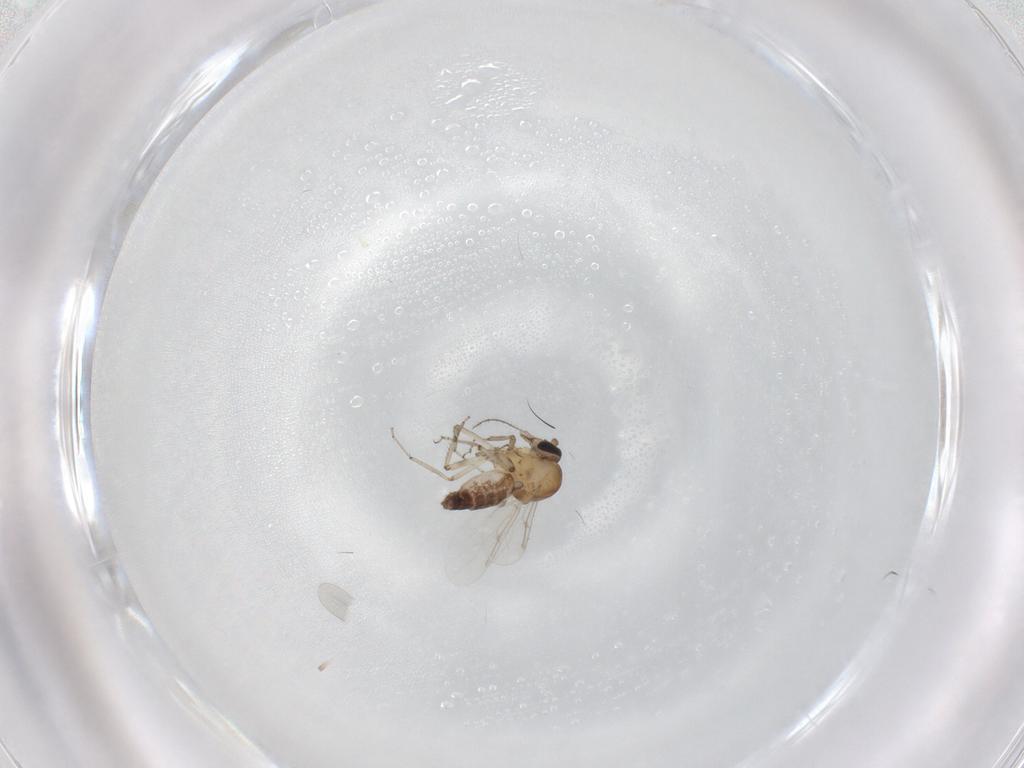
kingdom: Animalia
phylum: Arthropoda
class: Insecta
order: Diptera
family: Ceratopogonidae
